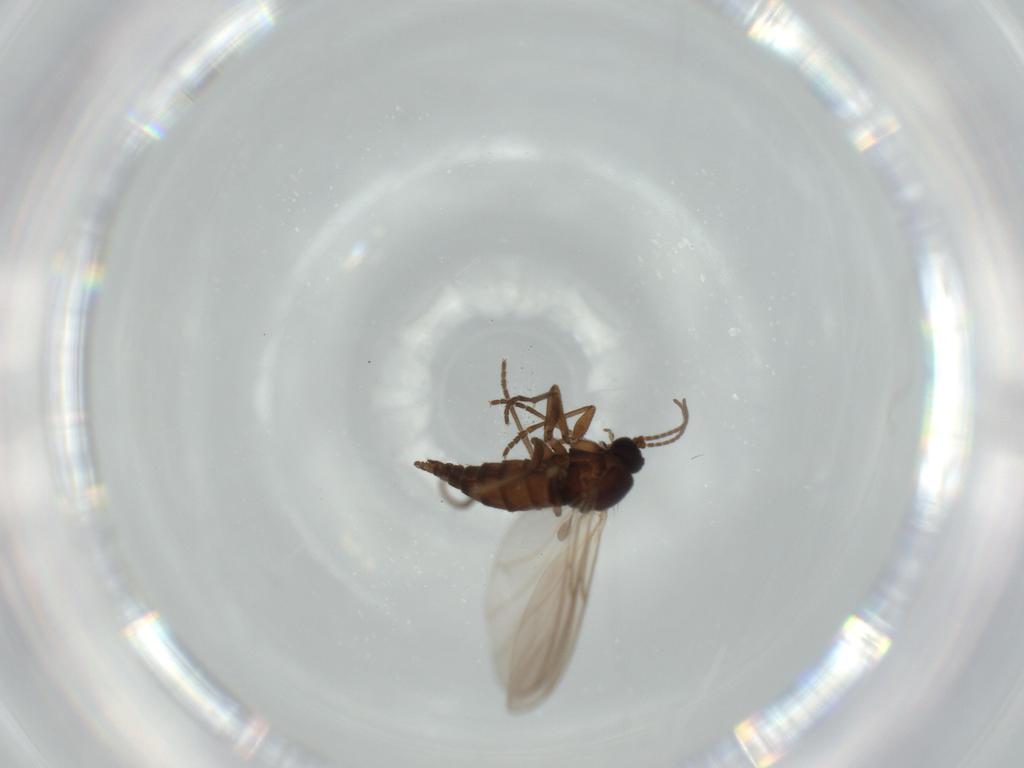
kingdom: Animalia
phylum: Arthropoda
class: Insecta
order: Diptera
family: Sciaridae
